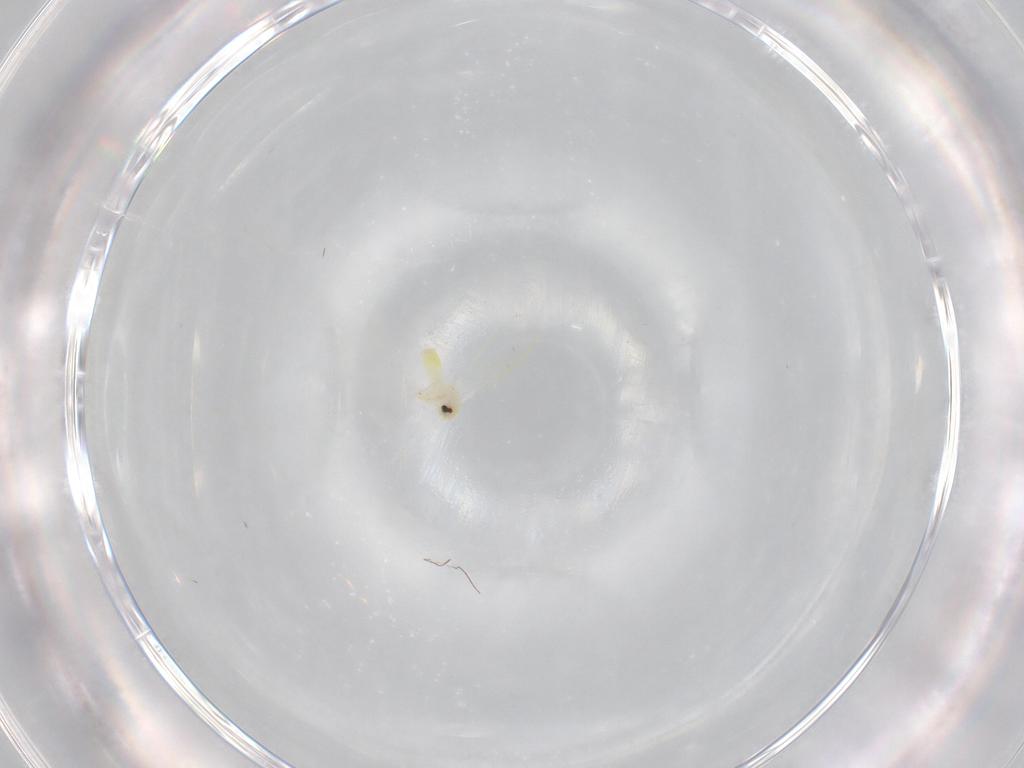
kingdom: Animalia
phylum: Arthropoda
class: Insecta
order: Hemiptera
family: Aleyrodidae
